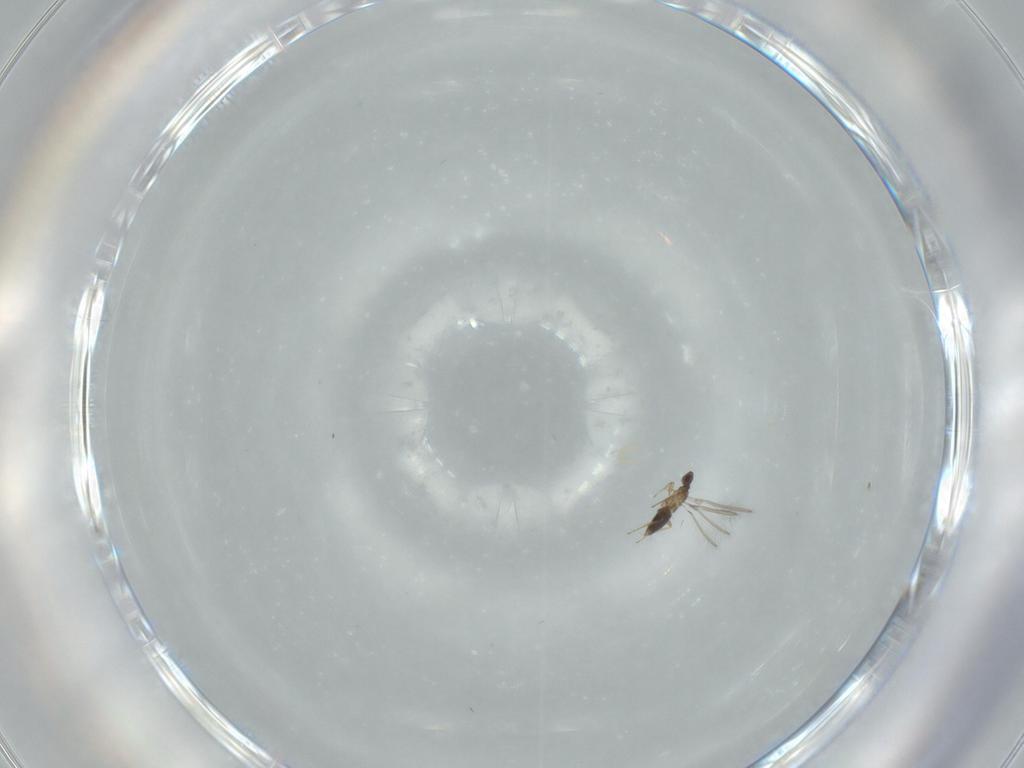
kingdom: Animalia
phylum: Arthropoda
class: Insecta
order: Hymenoptera
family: Mymaridae
